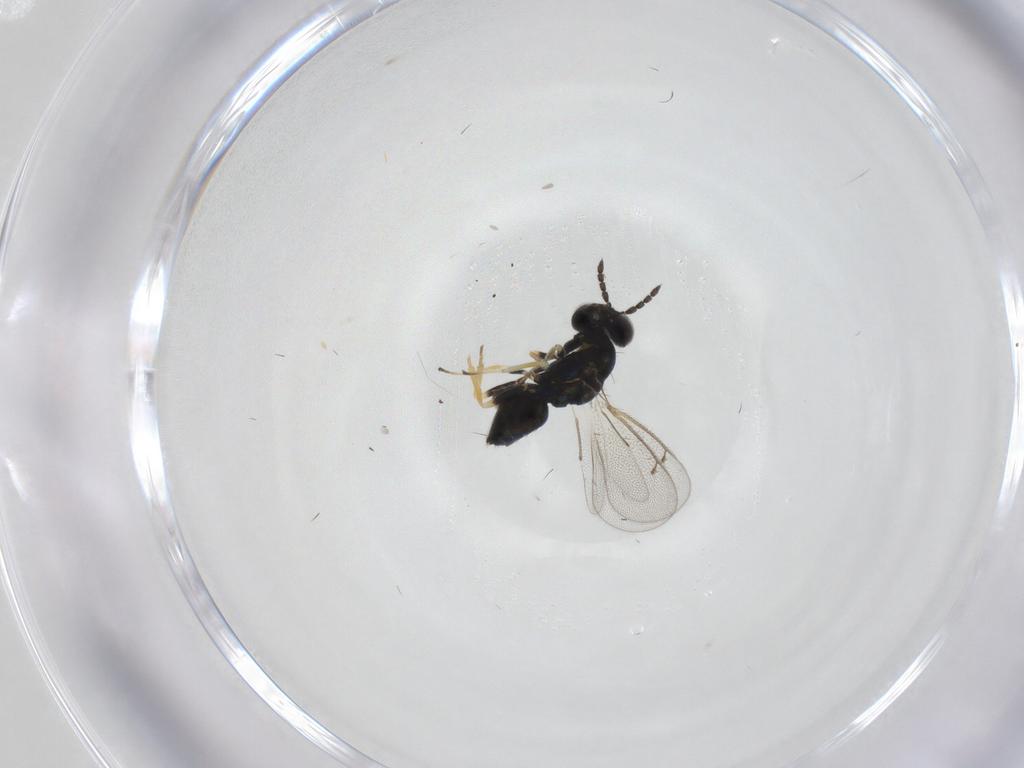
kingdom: Animalia
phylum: Arthropoda
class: Insecta
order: Hymenoptera
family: Eulophidae
